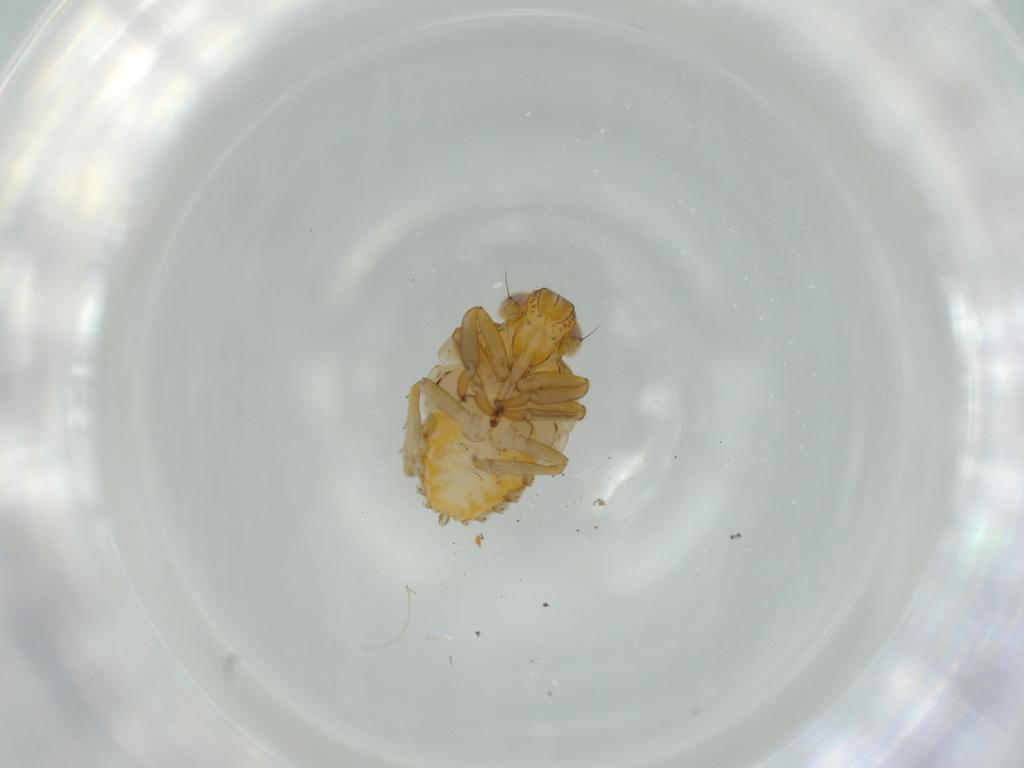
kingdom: Animalia
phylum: Arthropoda
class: Insecta
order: Hemiptera
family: Issidae
